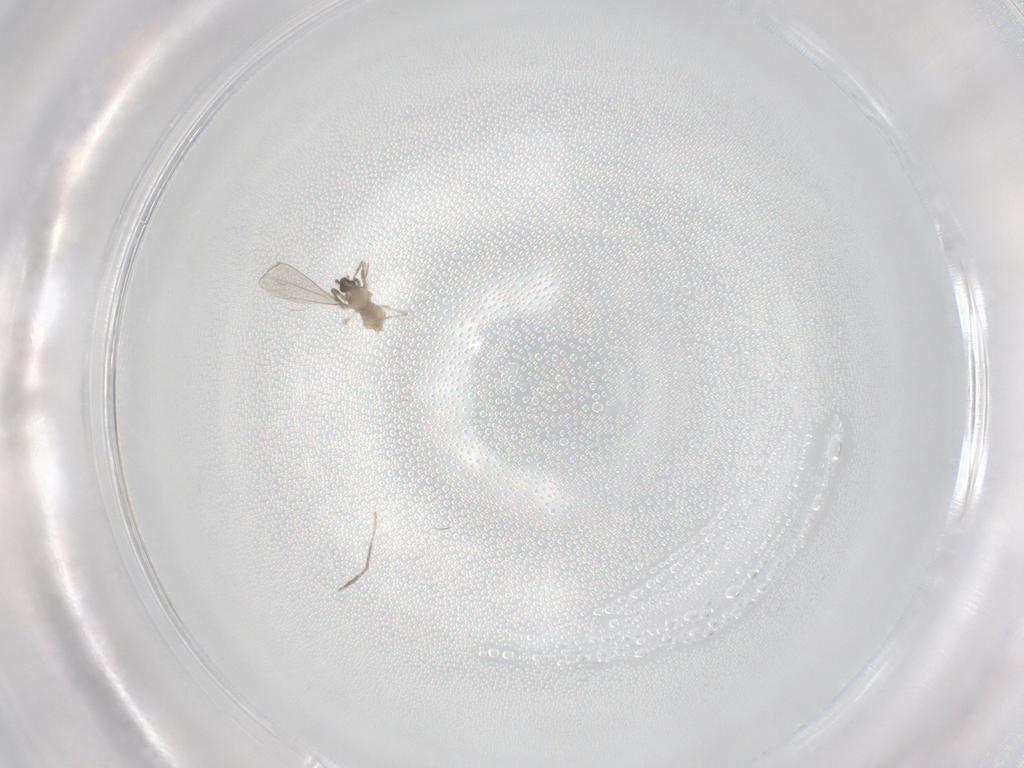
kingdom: Animalia
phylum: Arthropoda
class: Insecta
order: Diptera
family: Cecidomyiidae
